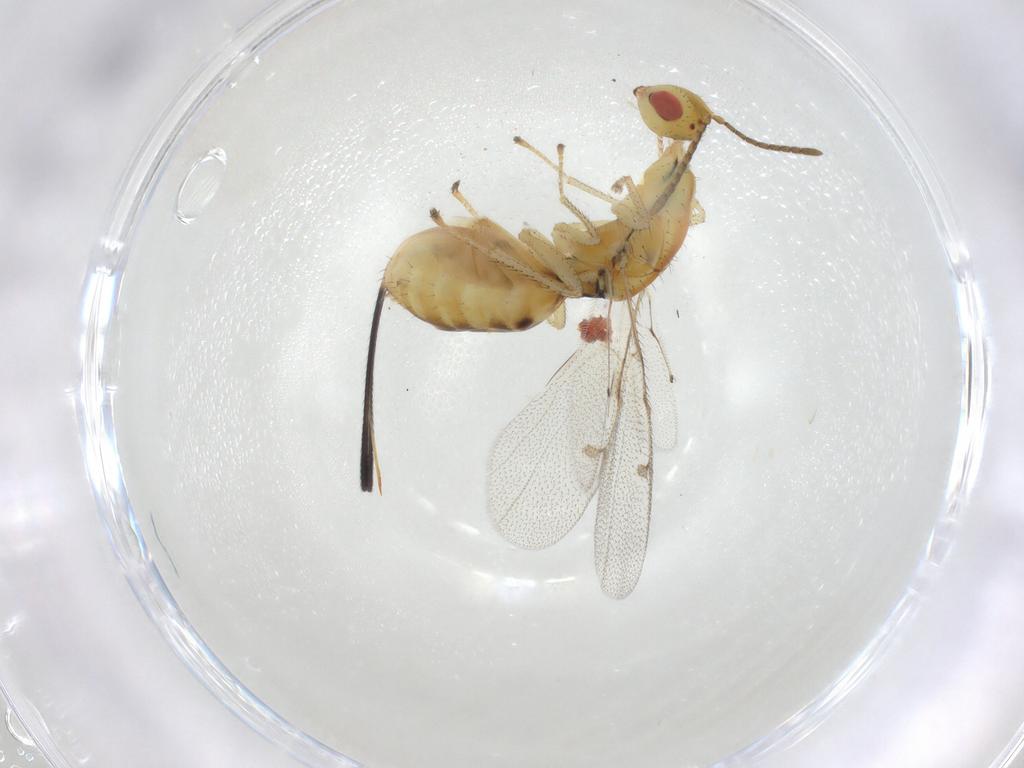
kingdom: Animalia
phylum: Arthropoda
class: Insecta
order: Hymenoptera
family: Megastigmidae
